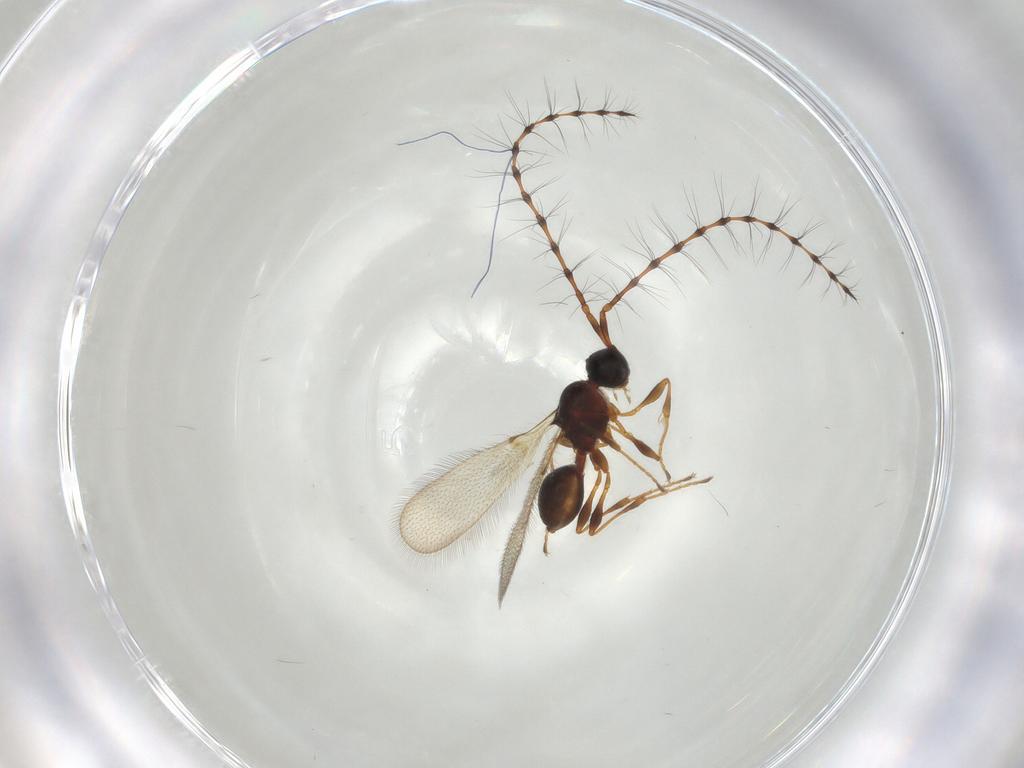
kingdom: Animalia
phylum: Arthropoda
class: Insecta
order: Hymenoptera
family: Diapriidae
